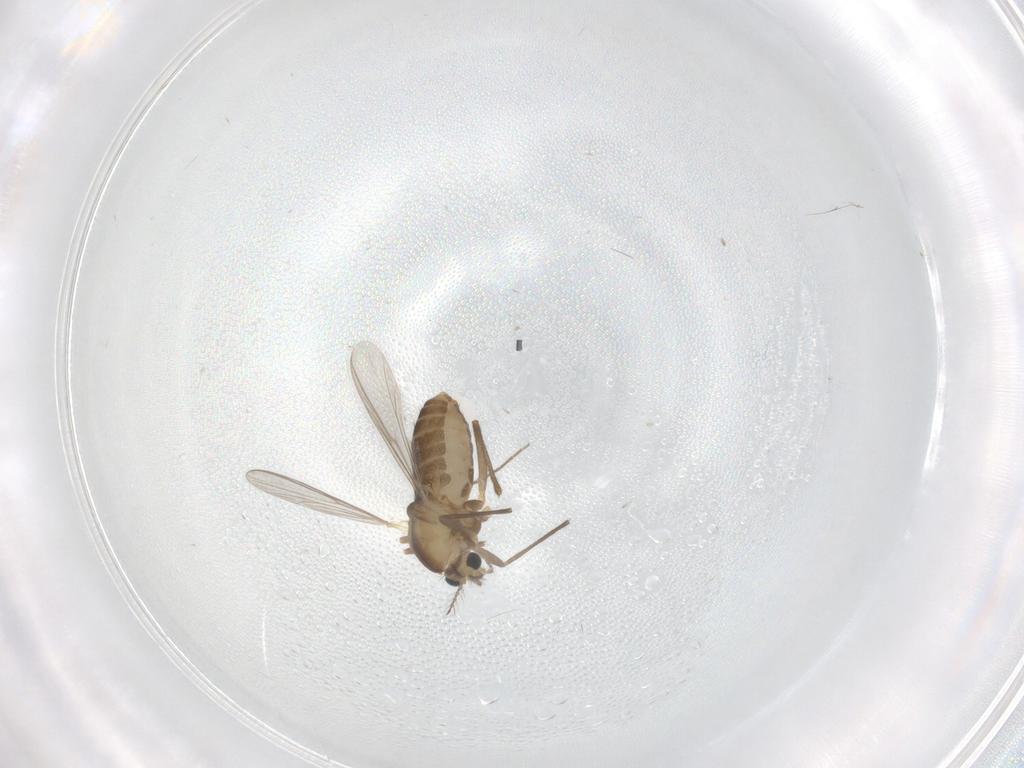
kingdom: Animalia
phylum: Arthropoda
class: Insecta
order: Diptera
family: Chironomidae
